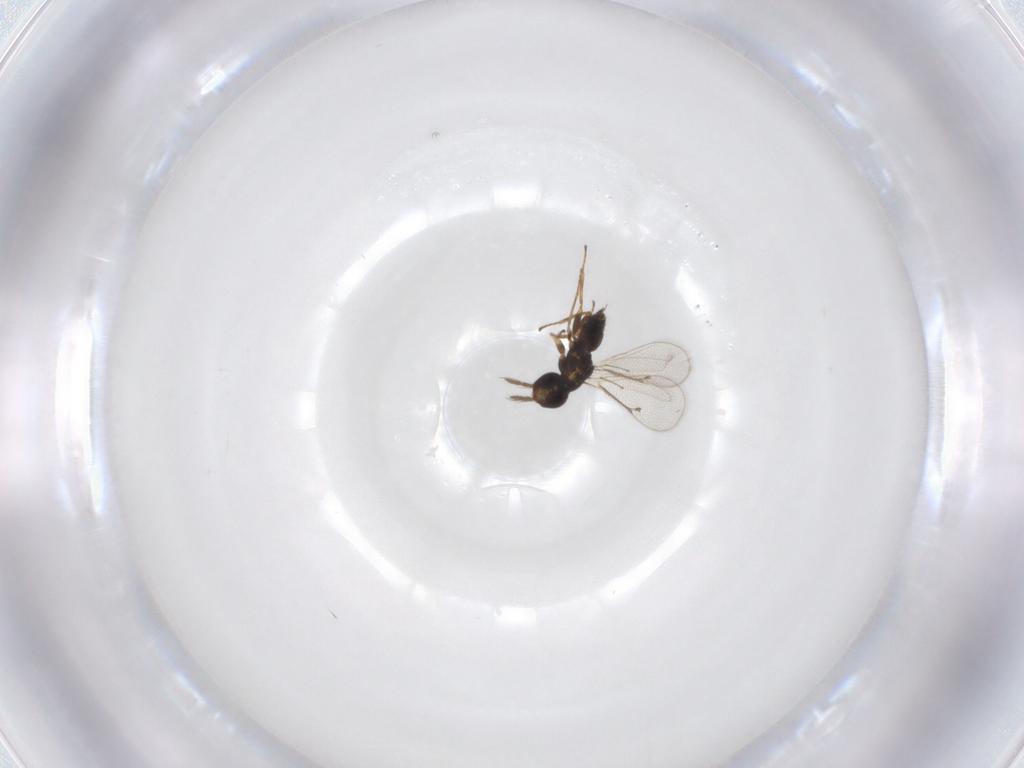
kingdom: Animalia
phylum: Arthropoda
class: Insecta
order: Hymenoptera
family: Eulophidae
